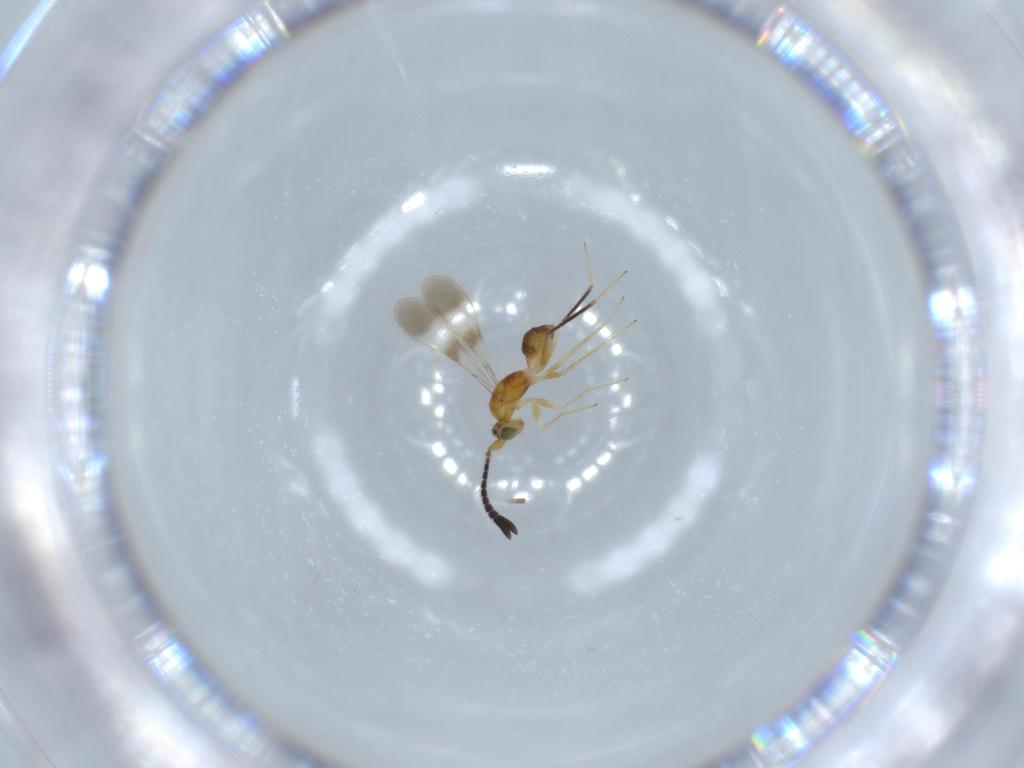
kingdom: Animalia
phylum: Arthropoda
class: Insecta
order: Hymenoptera
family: Mymaridae
